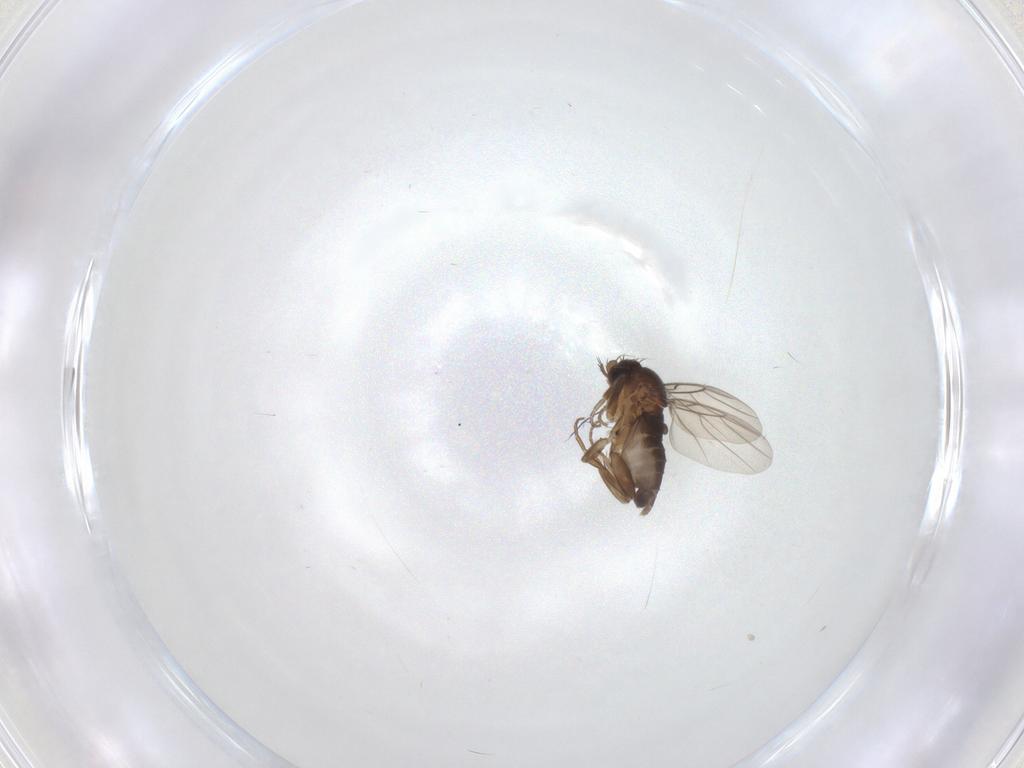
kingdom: Animalia
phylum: Arthropoda
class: Insecta
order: Diptera
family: Phoridae
